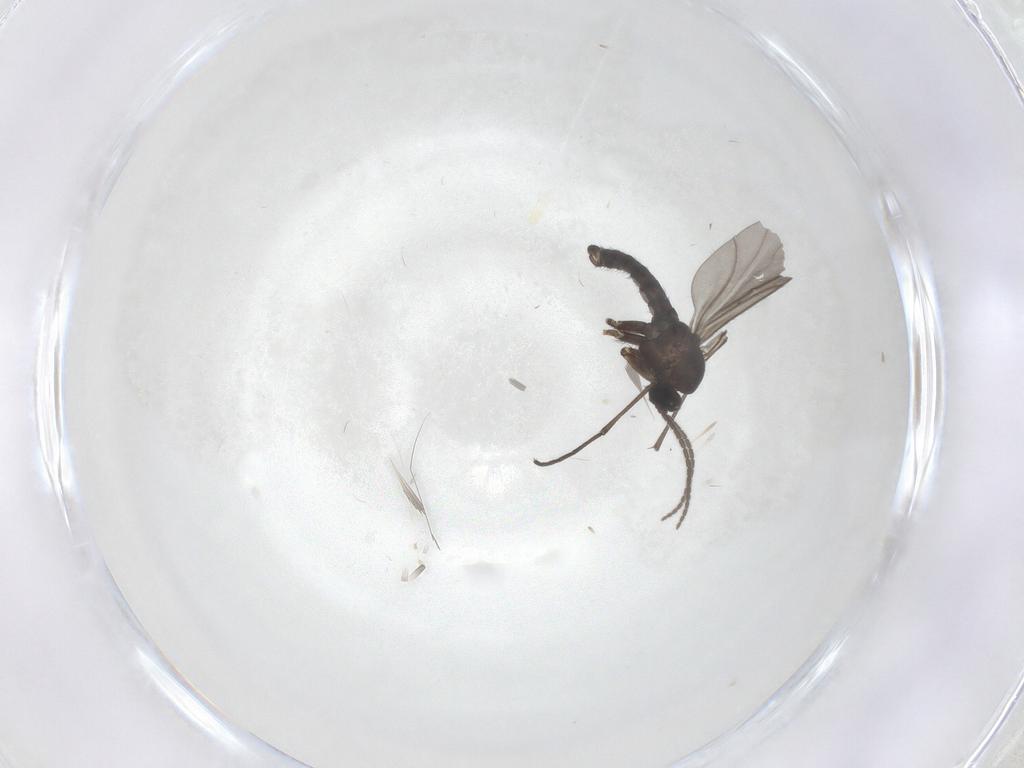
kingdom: Animalia
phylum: Arthropoda
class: Insecta
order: Diptera
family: Sciaridae
